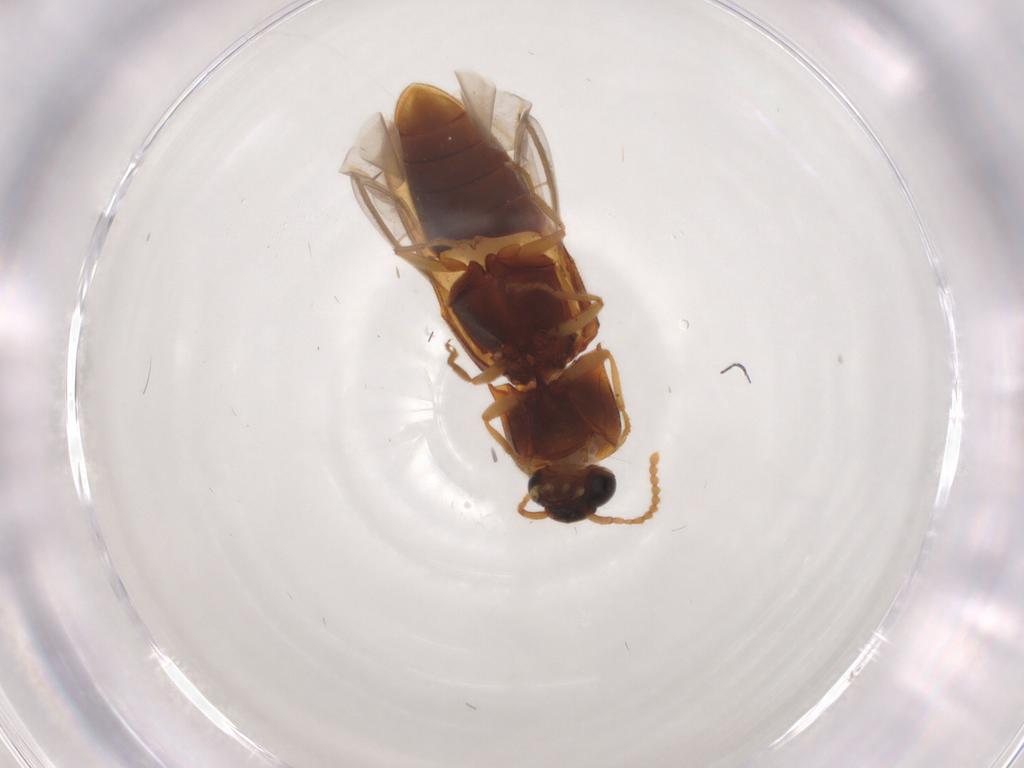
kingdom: Animalia
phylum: Arthropoda
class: Insecta
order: Coleoptera
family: Elateridae
